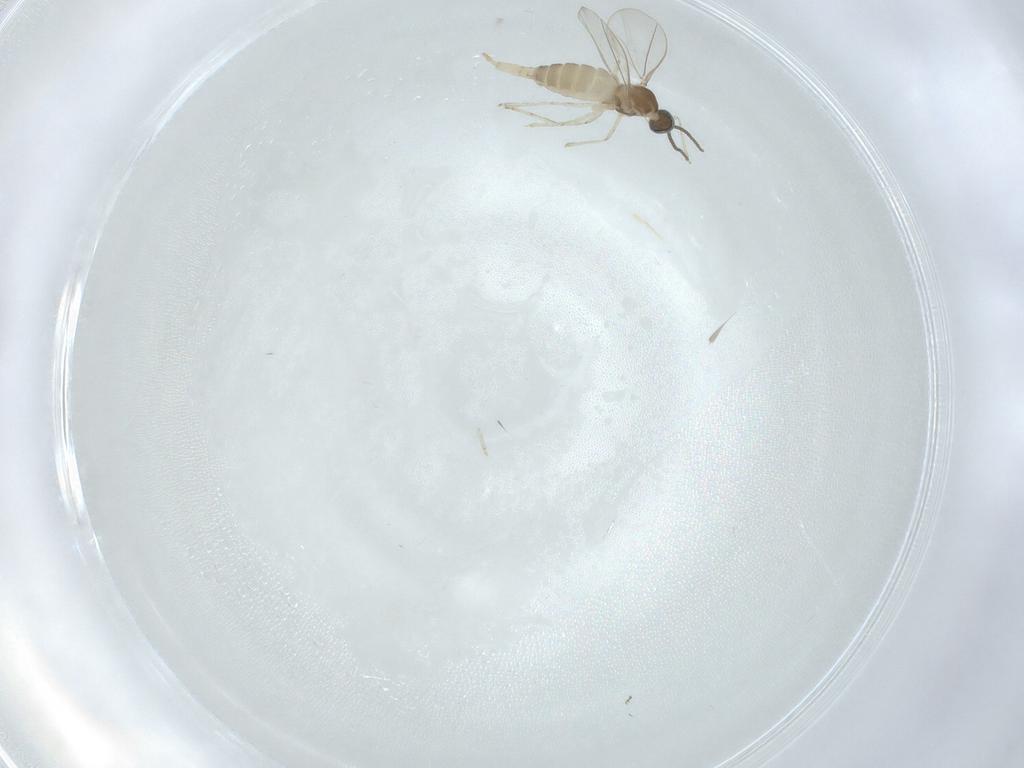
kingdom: Animalia
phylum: Arthropoda
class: Insecta
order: Diptera
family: Cecidomyiidae
